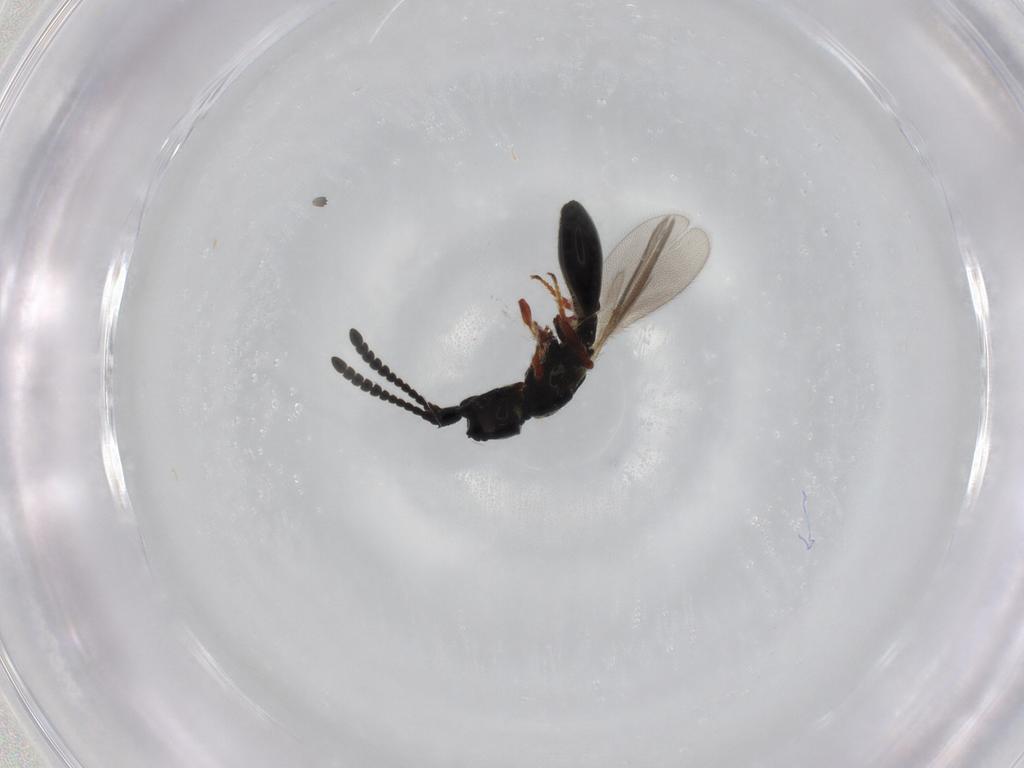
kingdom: Animalia
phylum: Arthropoda
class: Insecta
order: Hymenoptera
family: Diapriidae
